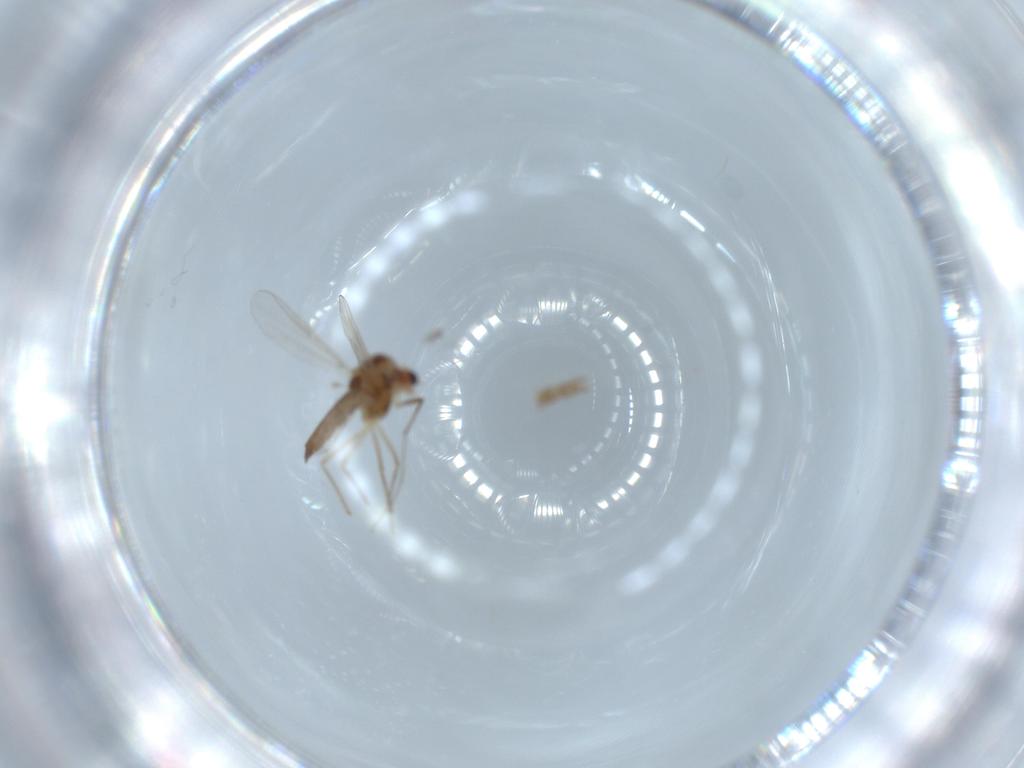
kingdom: Animalia
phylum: Arthropoda
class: Insecta
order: Diptera
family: Chironomidae
